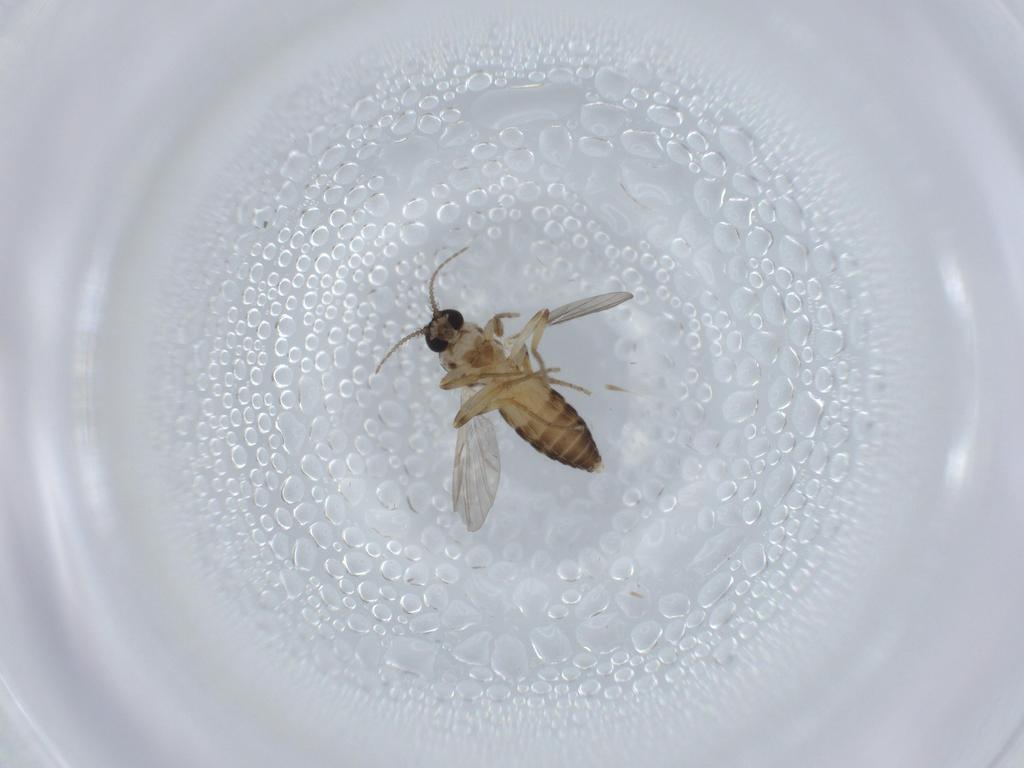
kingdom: Animalia
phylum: Arthropoda
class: Insecta
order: Diptera
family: Ceratopogonidae
